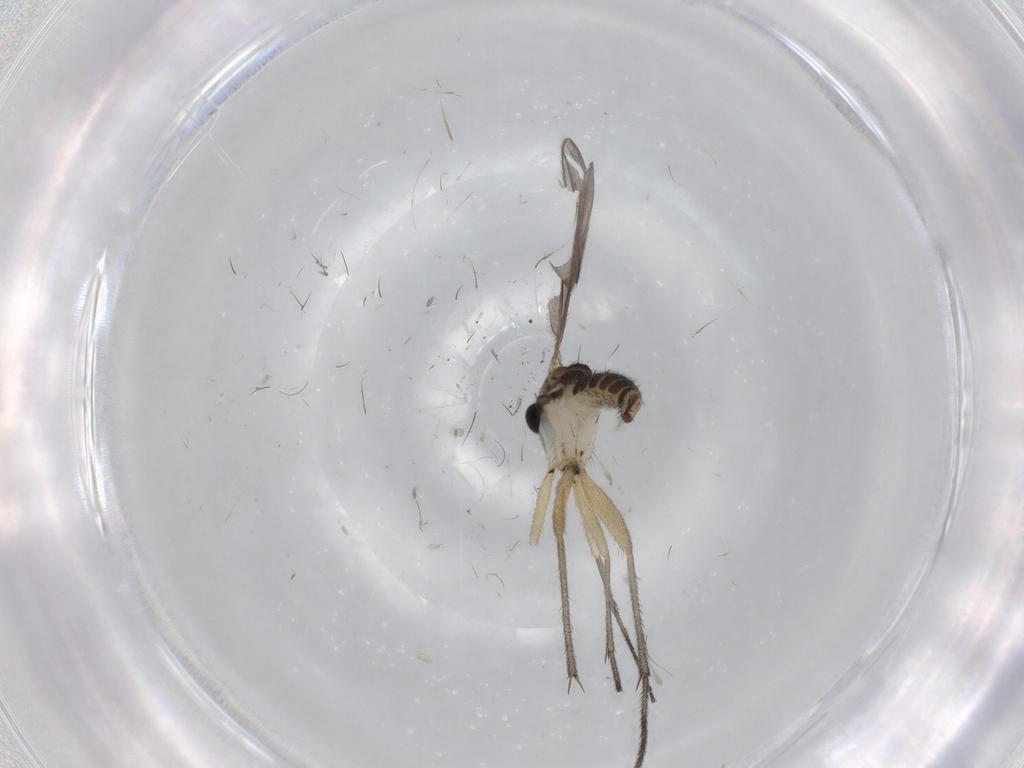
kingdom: Animalia
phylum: Arthropoda
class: Insecta
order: Diptera
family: Sciaridae
